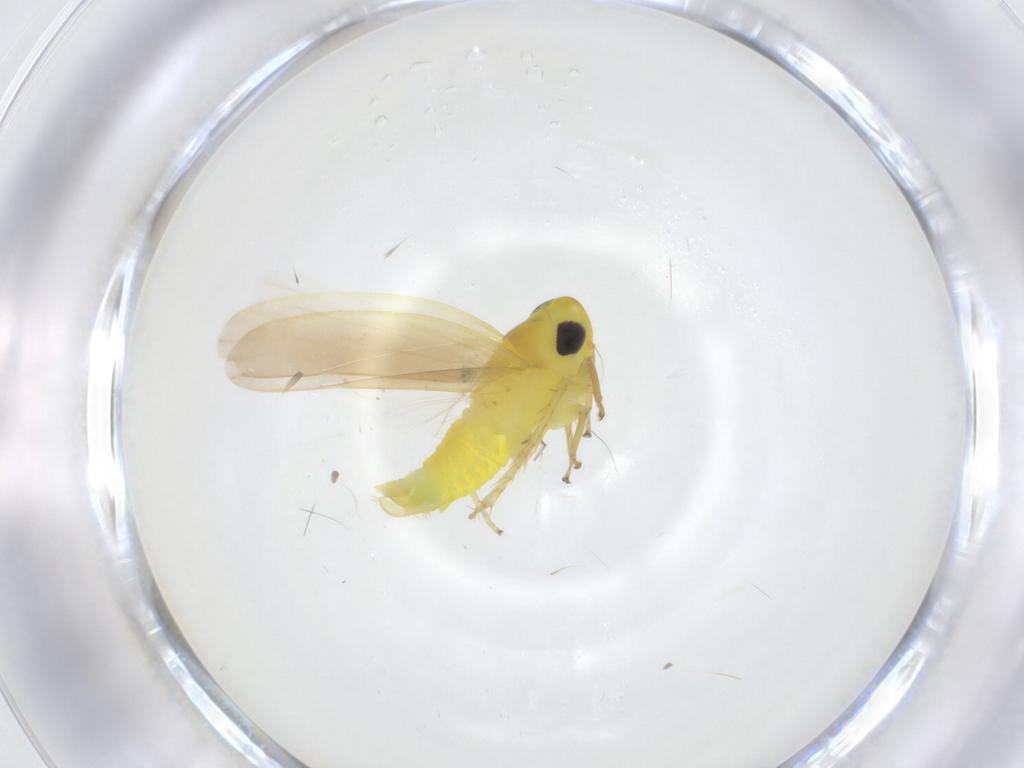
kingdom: Animalia
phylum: Arthropoda
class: Insecta
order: Hemiptera
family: Cicadellidae
